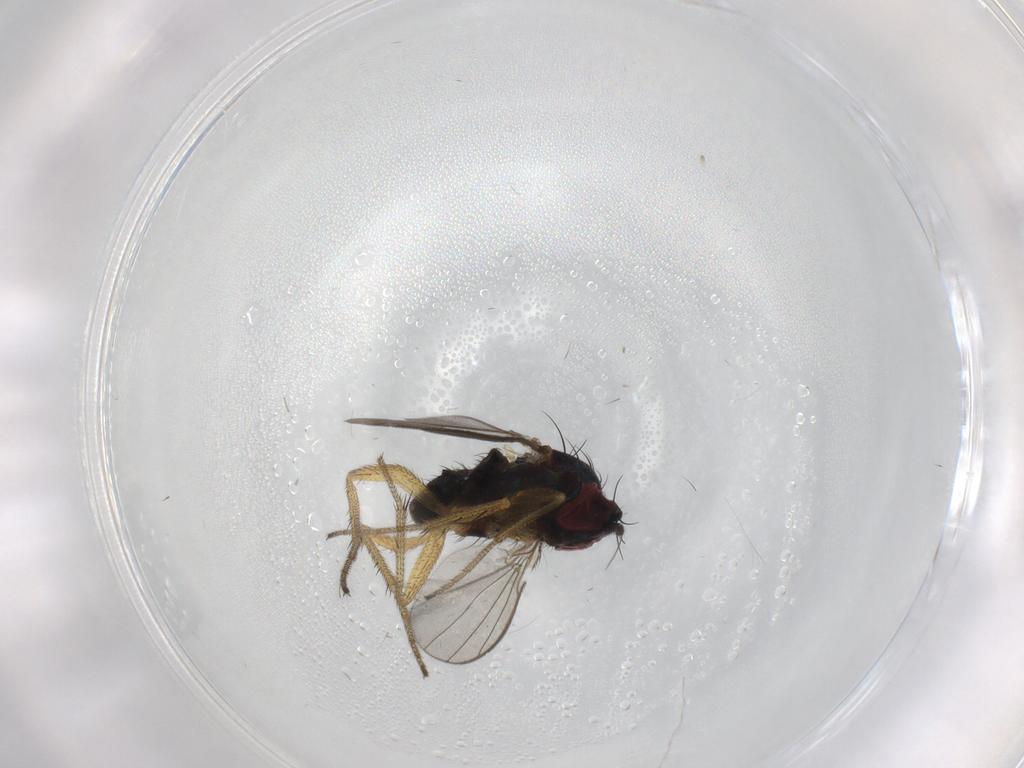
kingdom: Animalia
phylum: Arthropoda
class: Insecta
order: Diptera
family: Chironomidae
